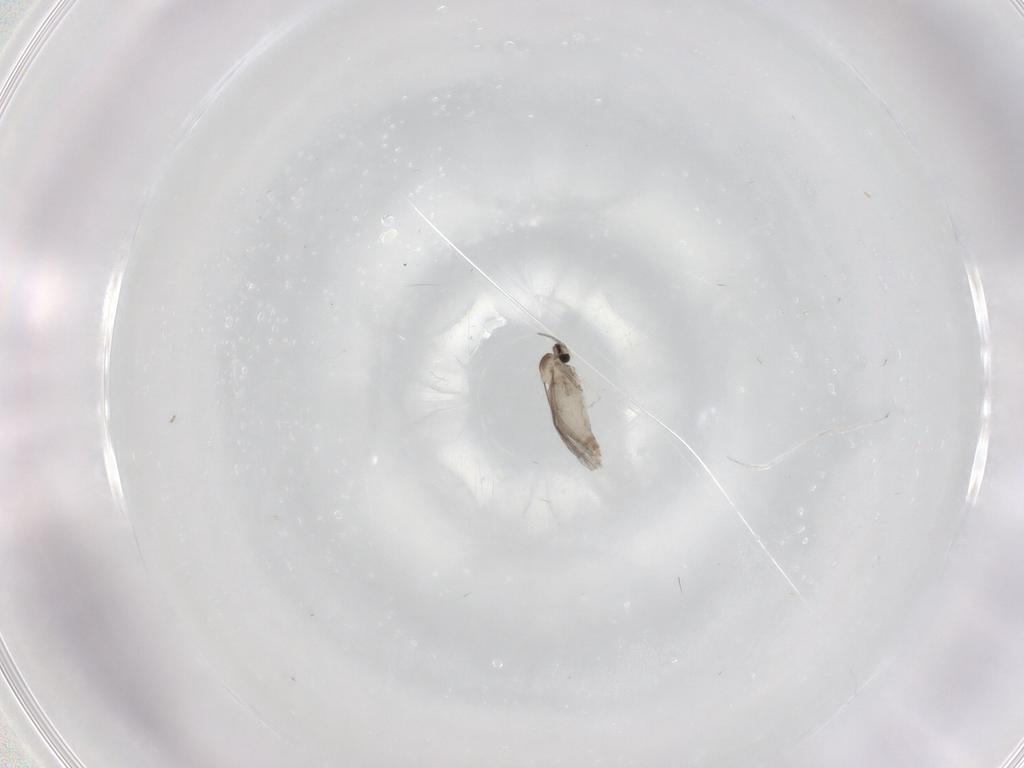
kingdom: Animalia
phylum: Arthropoda
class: Insecta
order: Diptera
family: Cecidomyiidae
